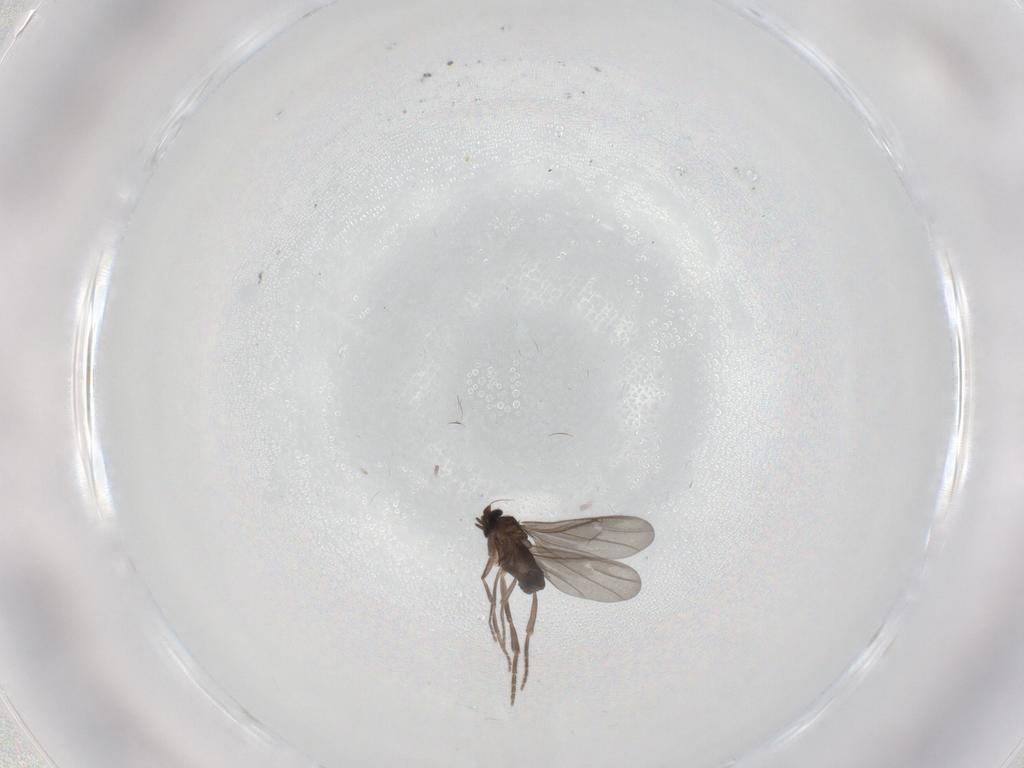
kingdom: Animalia
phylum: Arthropoda
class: Insecta
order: Diptera
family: Phoridae
